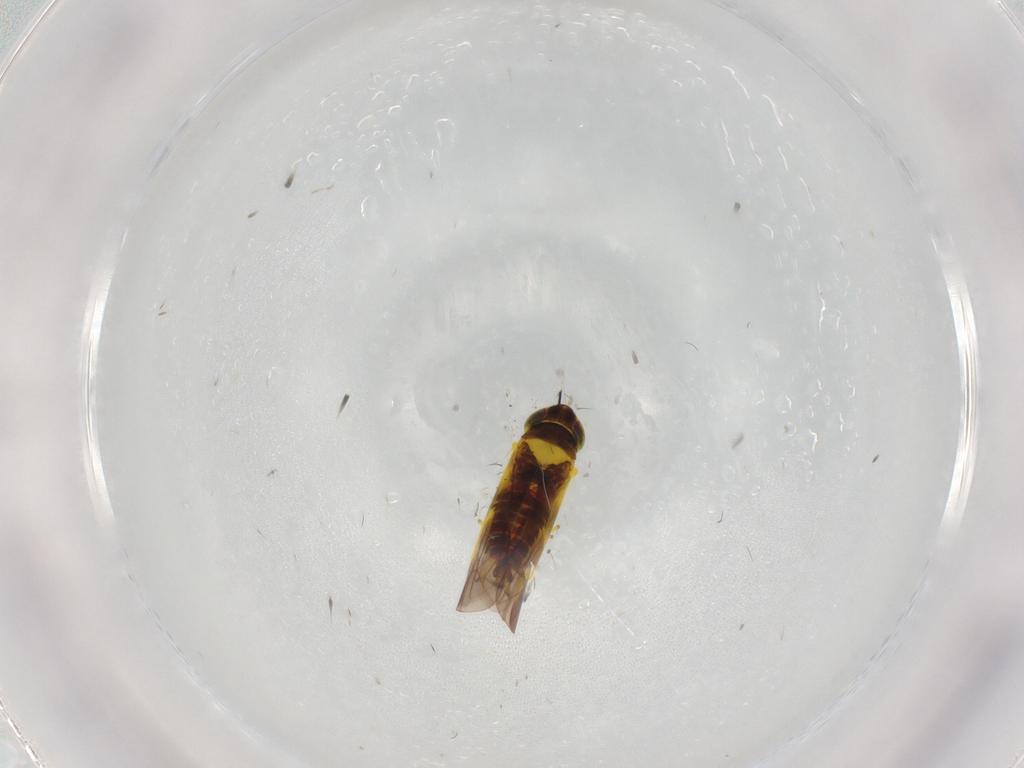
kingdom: Animalia
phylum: Arthropoda
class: Insecta
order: Hemiptera
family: Cicadellidae
